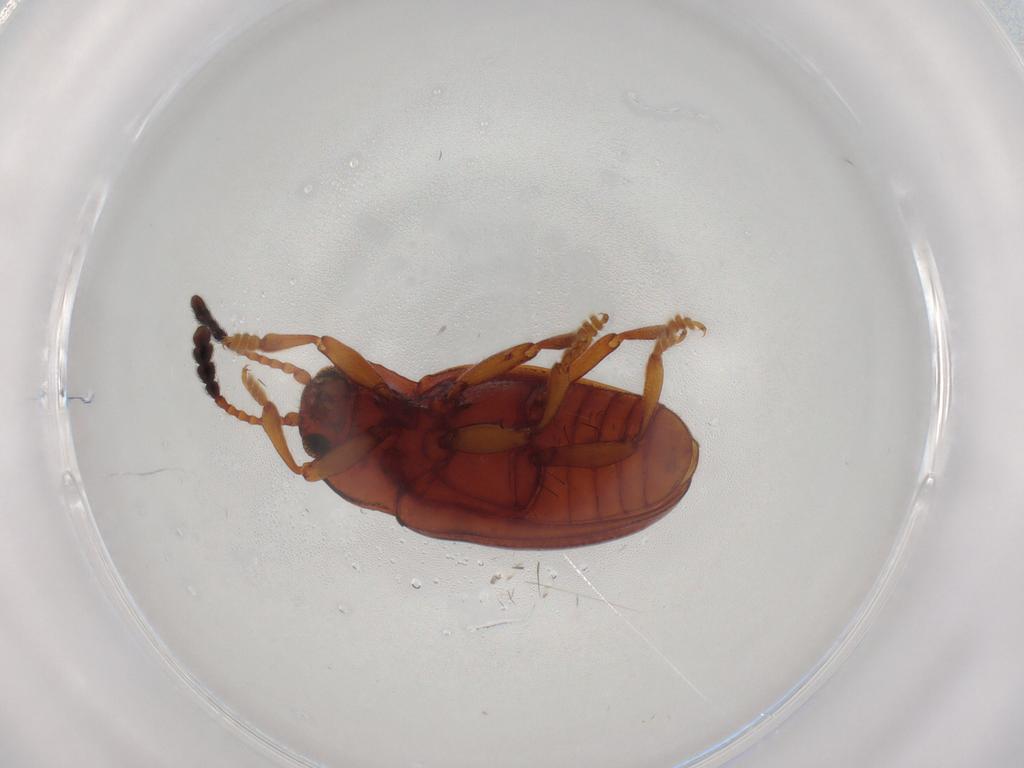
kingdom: Animalia
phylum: Arthropoda
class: Insecta
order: Coleoptera
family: Erotylidae
